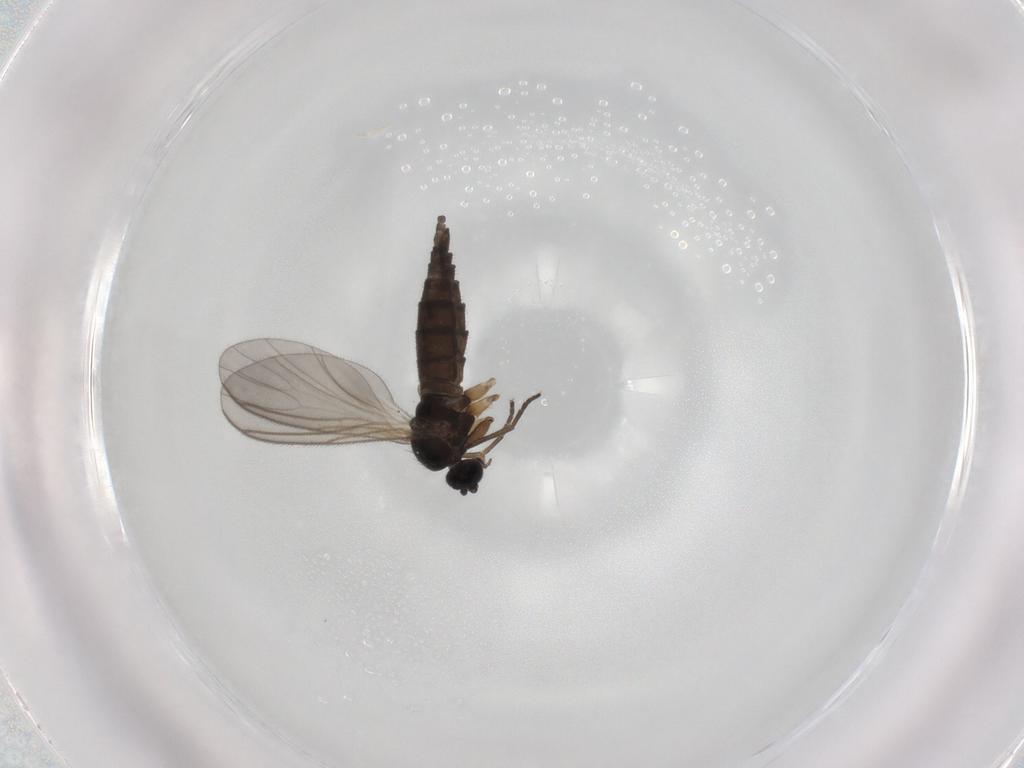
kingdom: Animalia
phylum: Arthropoda
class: Insecta
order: Diptera
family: Sciaridae
